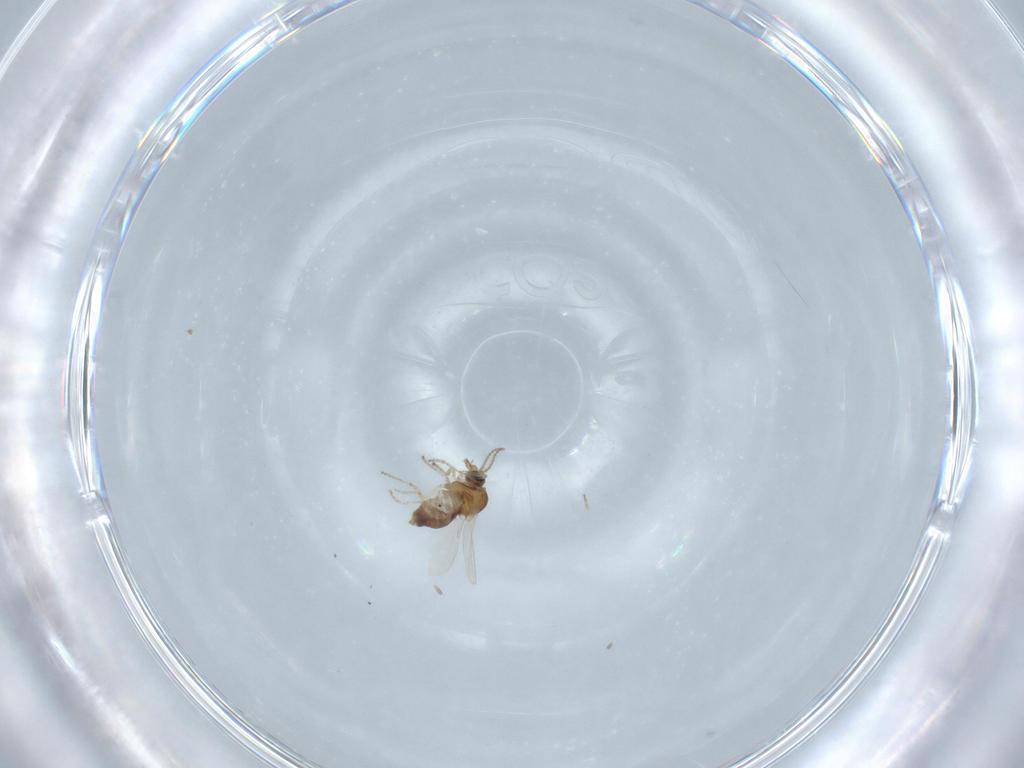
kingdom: Animalia
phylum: Arthropoda
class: Insecta
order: Diptera
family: Ceratopogonidae
